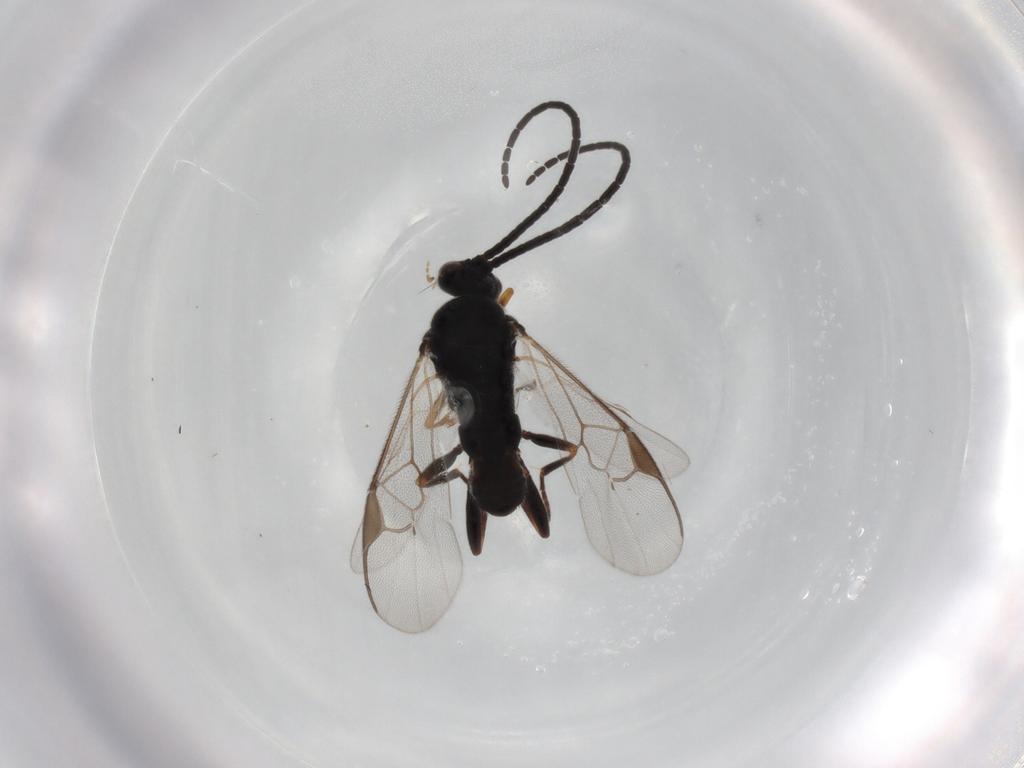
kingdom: Animalia
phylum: Arthropoda
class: Insecta
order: Hymenoptera
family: Braconidae
